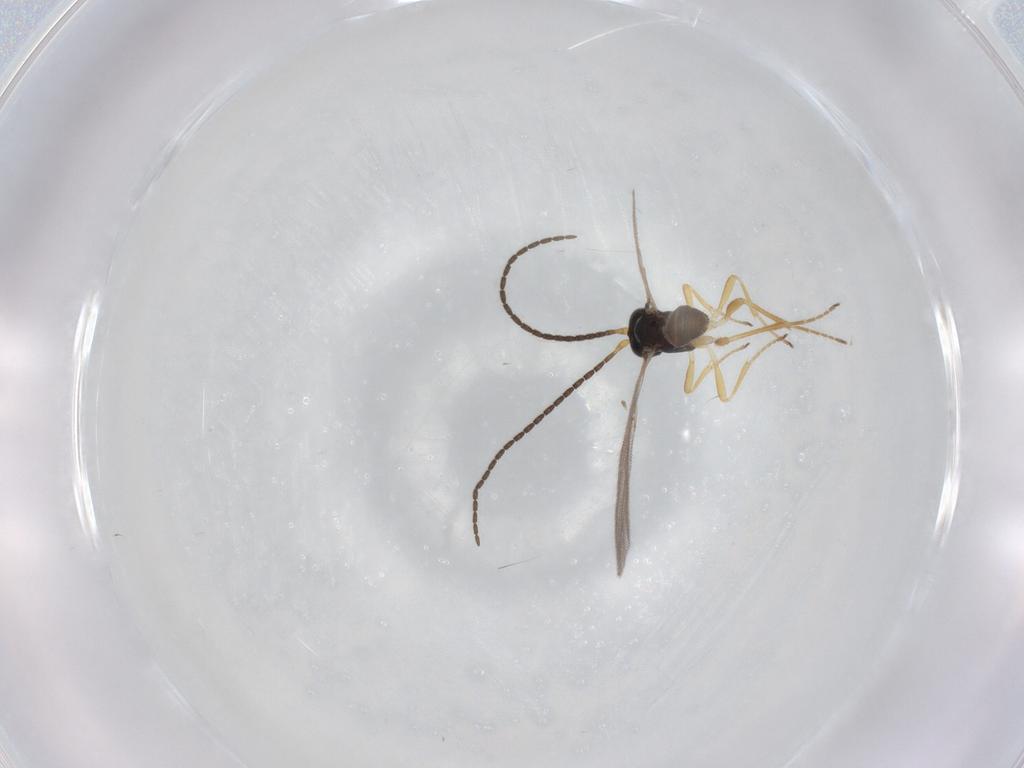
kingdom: Animalia
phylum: Arthropoda
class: Insecta
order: Hymenoptera
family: Braconidae
